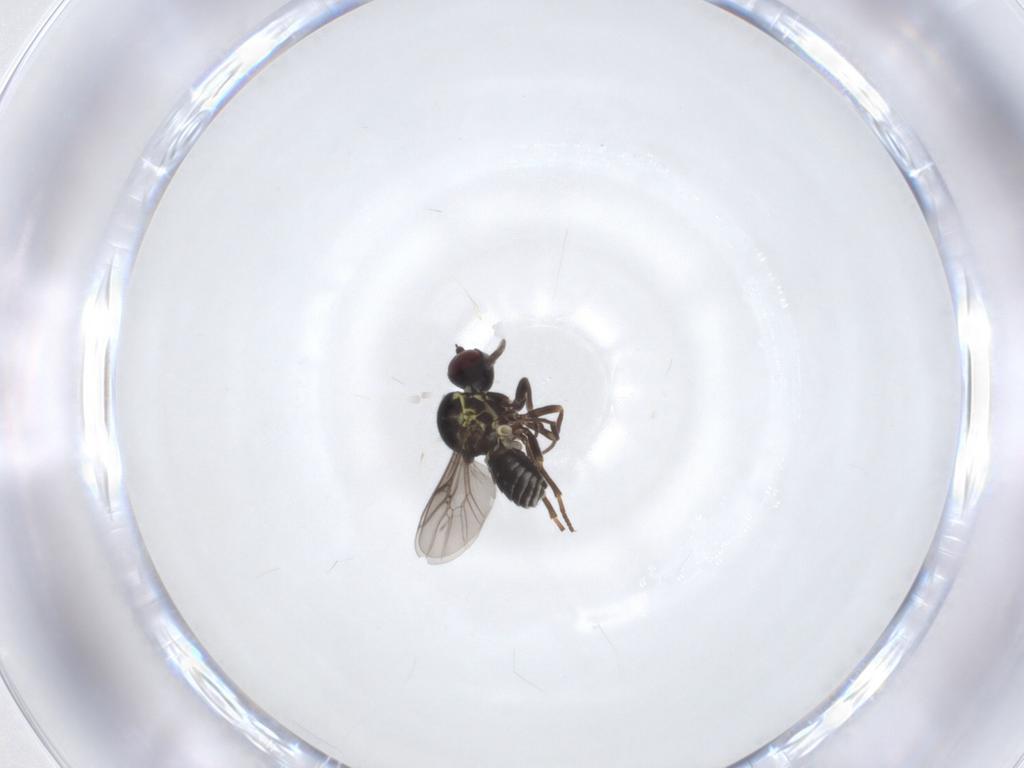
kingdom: Animalia
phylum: Arthropoda
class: Insecta
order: Diptera
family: Bombyliidae
